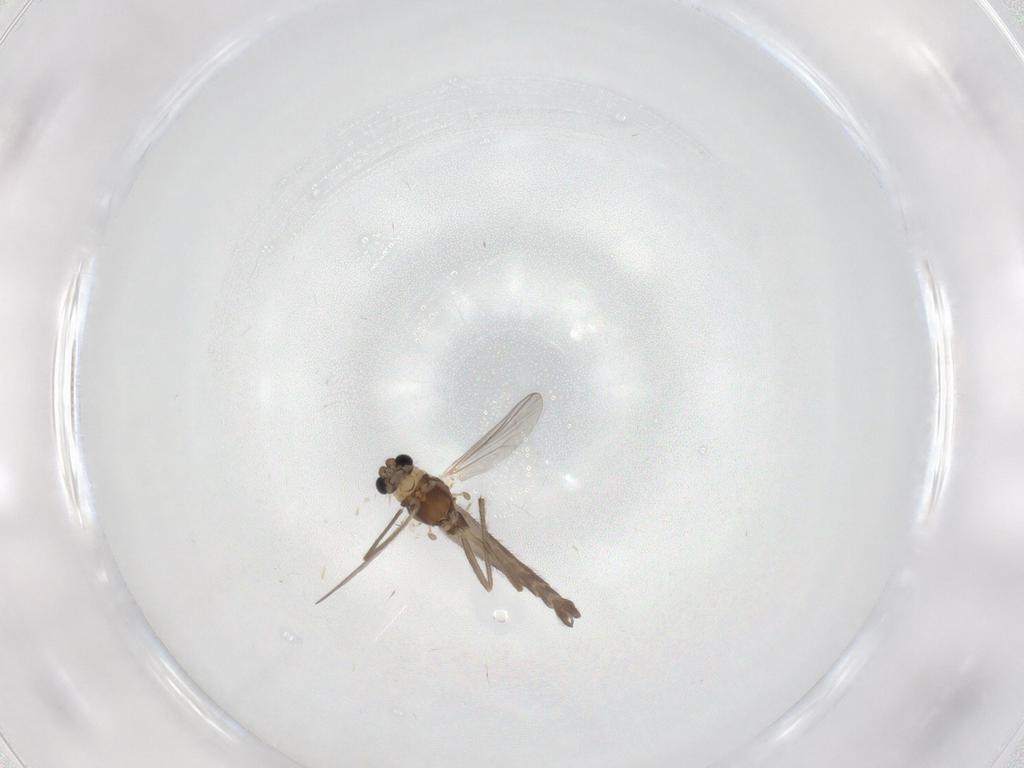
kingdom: Animalia
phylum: Arthropoda
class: Insecta
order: Diptera
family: Chironomidae
